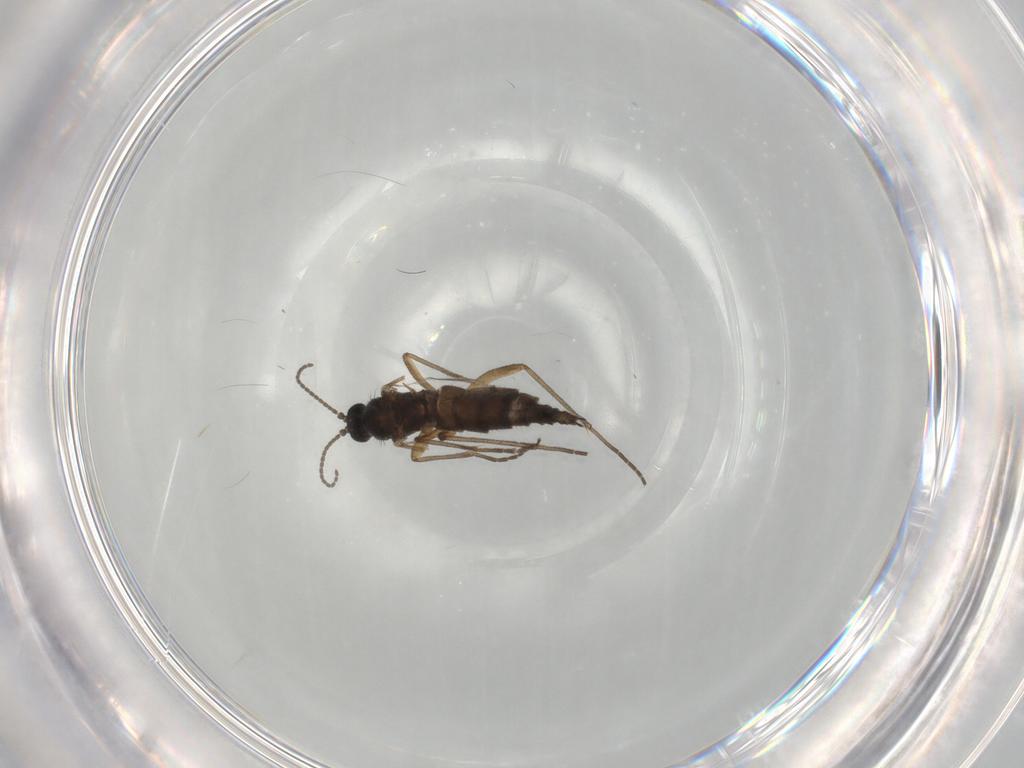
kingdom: Animalia
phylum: Arthropoda
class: Insecta
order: Diptera
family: Sciaridae
